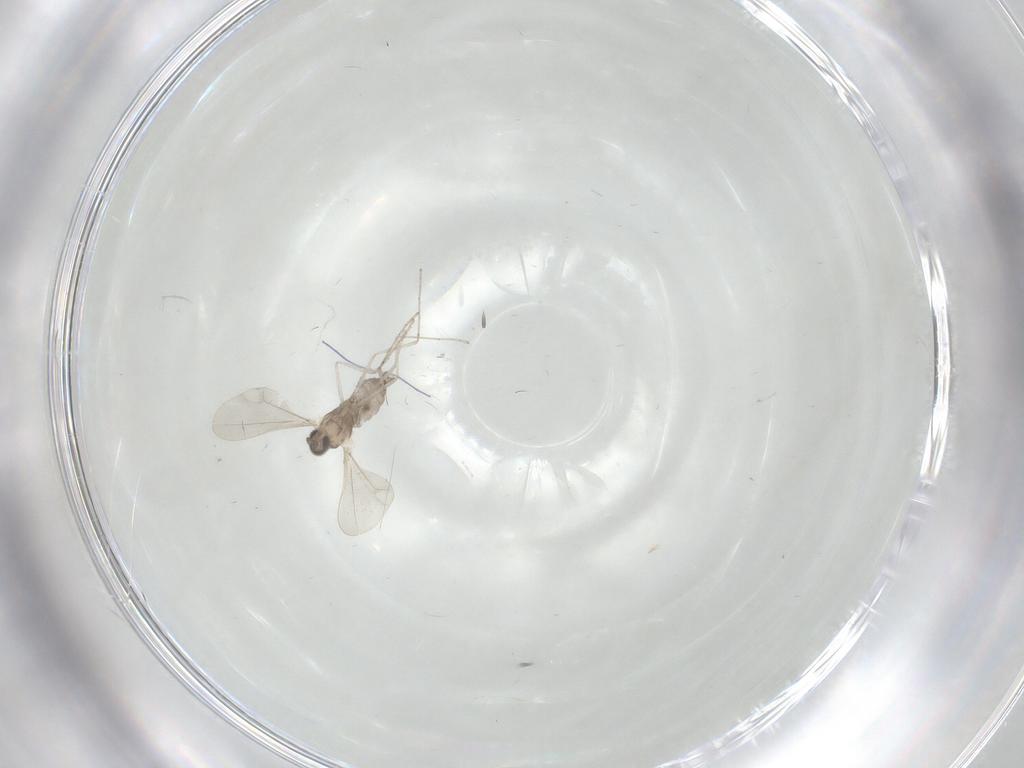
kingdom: Animalia
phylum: Arthropoda
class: Insecta
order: Diptera
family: Cecidomyiidae
